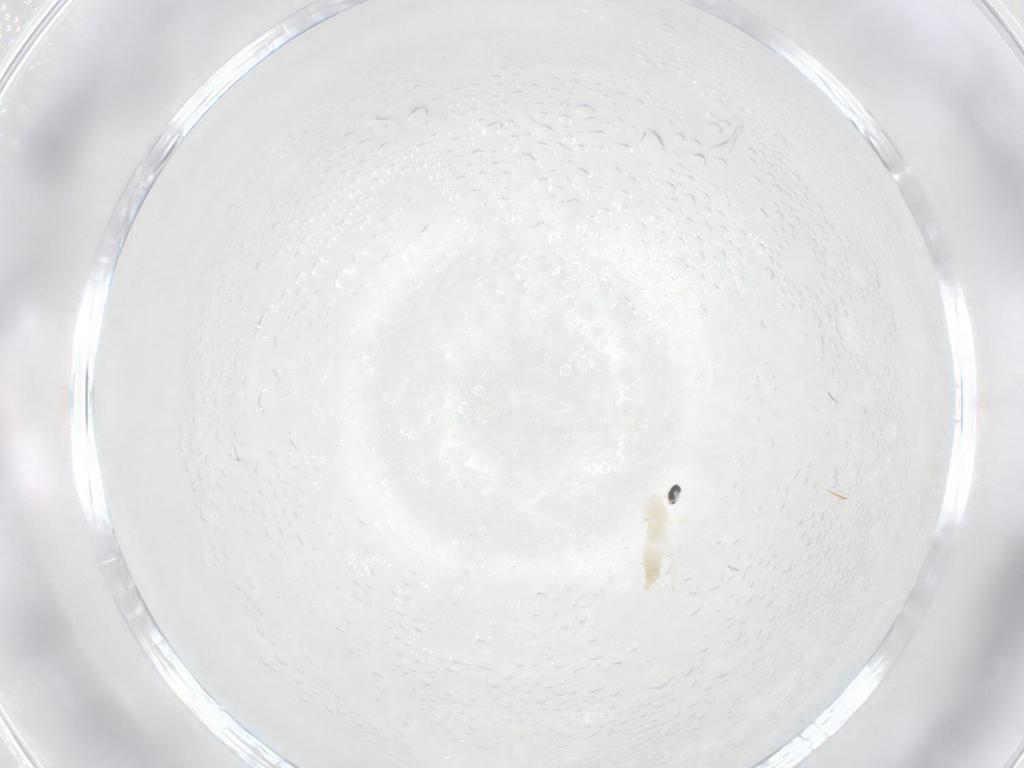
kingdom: Animalia
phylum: Arthropoda
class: Insecta
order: Diptera
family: Cecidomyiidae
